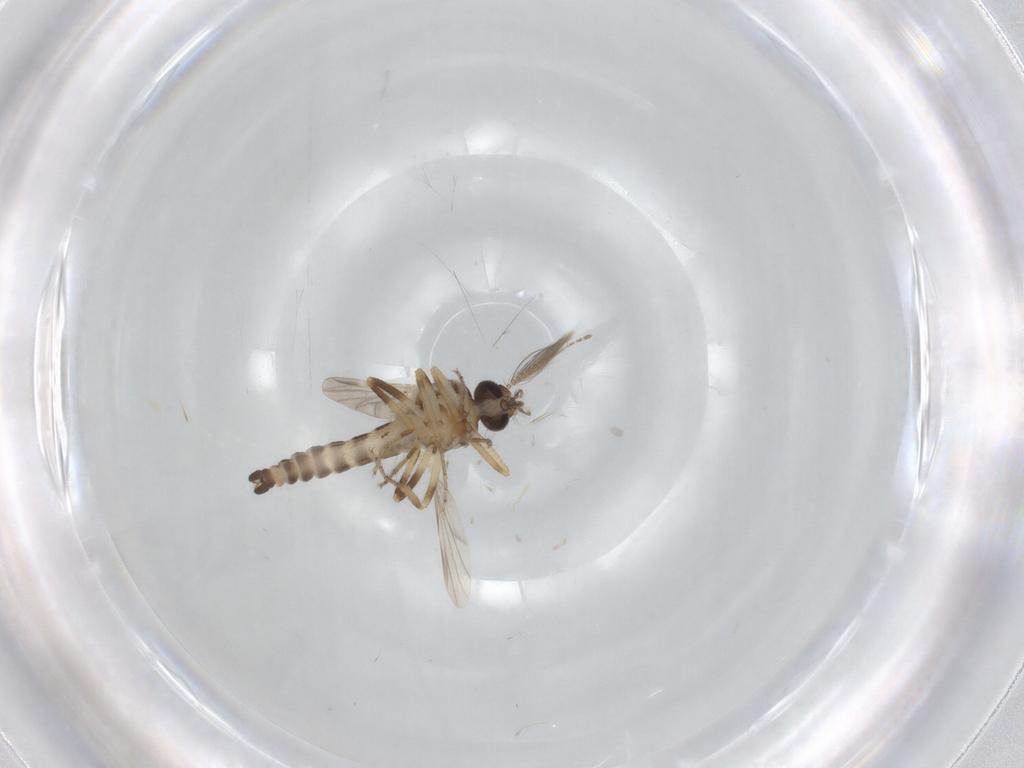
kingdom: Animalia
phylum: Arthropoda
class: Insecta
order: Diptera
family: Ceratopogonidae
